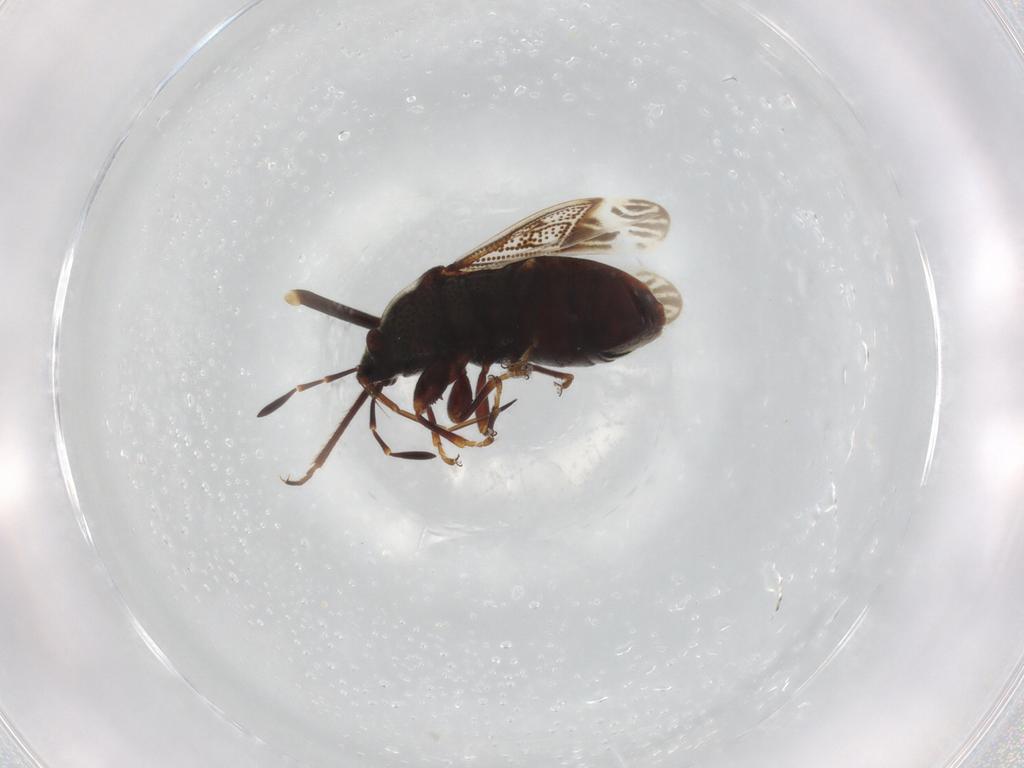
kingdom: Animalia
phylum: Arthropoda
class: Insecta
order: Hemiptera
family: Rhyparochromidae
